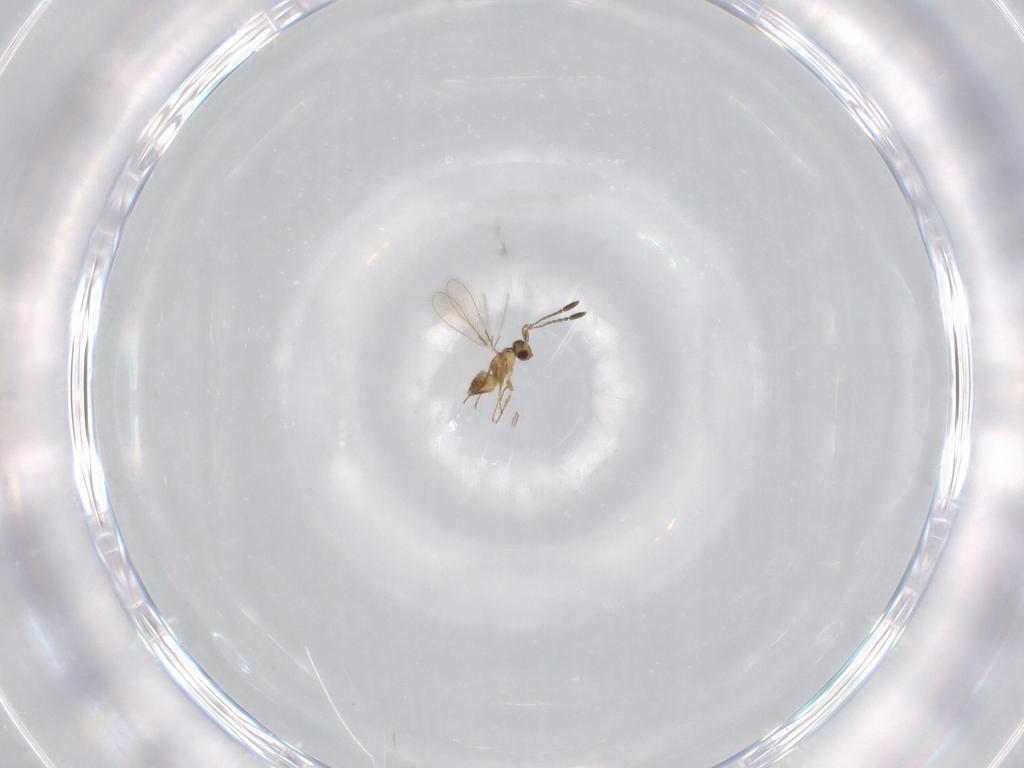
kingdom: Animalia
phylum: Arthropoda
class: Insecta
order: Hymenoptera
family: Mymaridae
